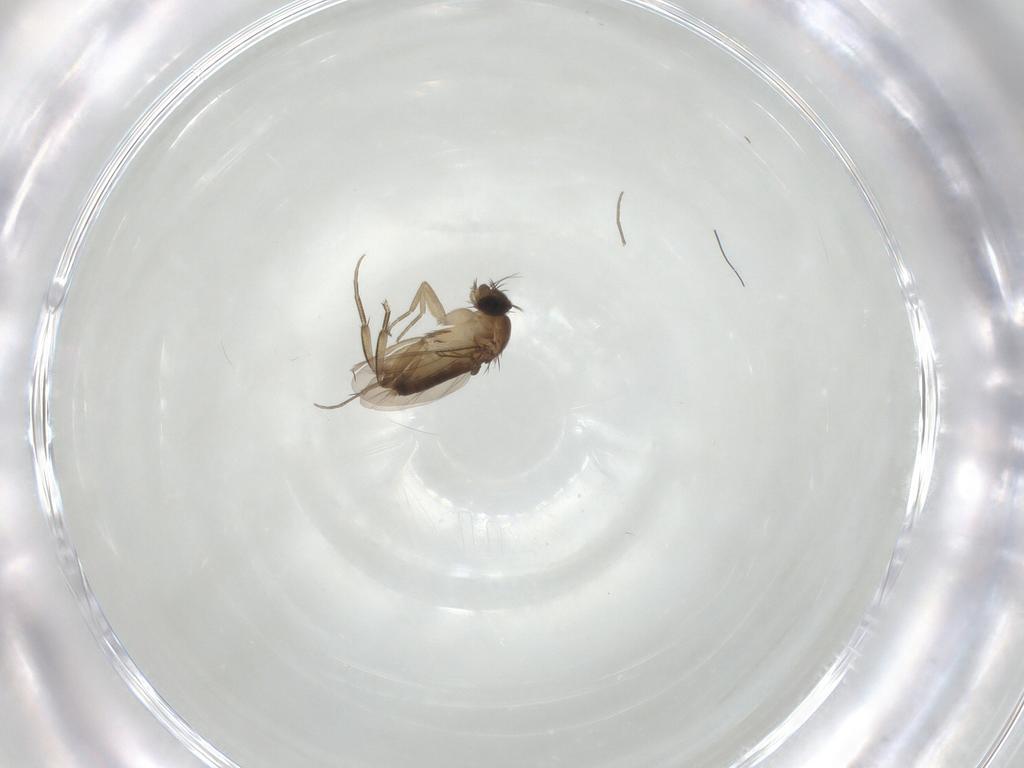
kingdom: Animalia
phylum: Arthropoda
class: Insecta
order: Diptera
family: Phoridae
